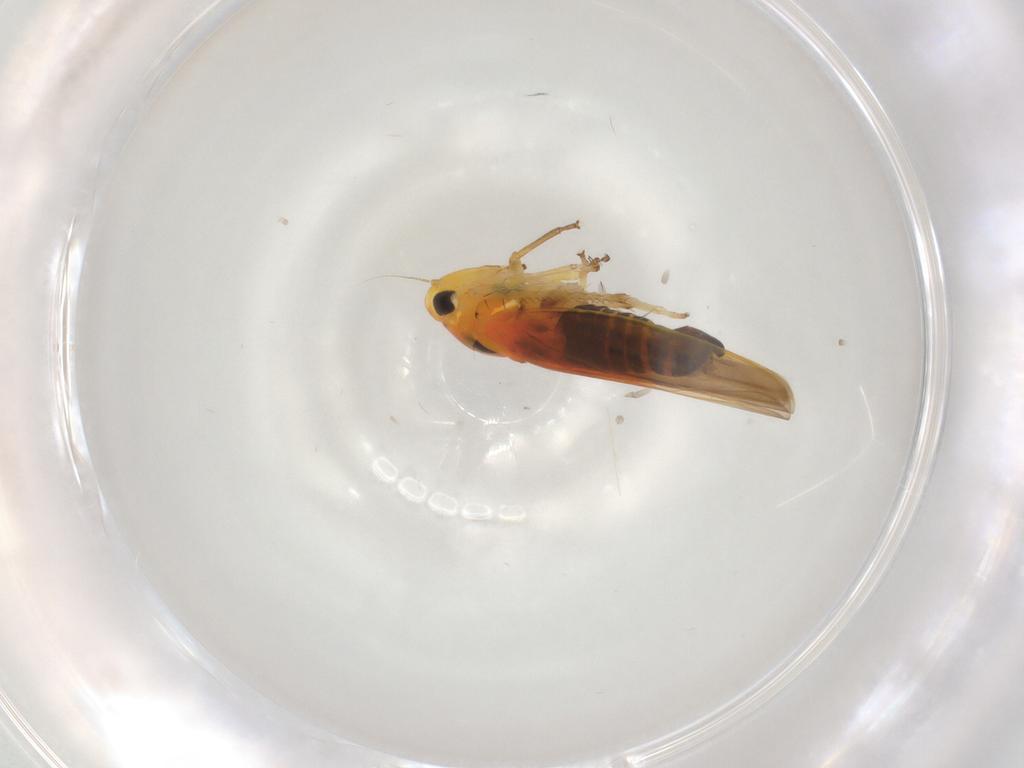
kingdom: Animalia
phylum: Arthropoda
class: Insecta
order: Hemiptera
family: Cicadellidae
